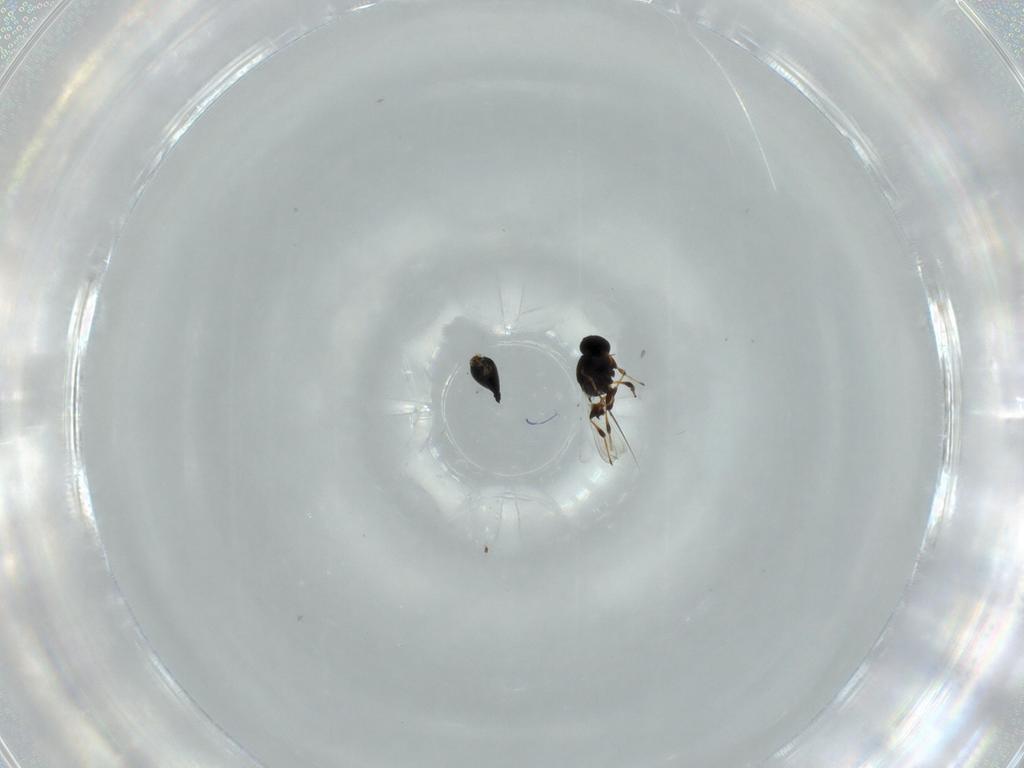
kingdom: Animalia
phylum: Arthropoda
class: Insecta
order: Hymenoptera
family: Platygastridae
